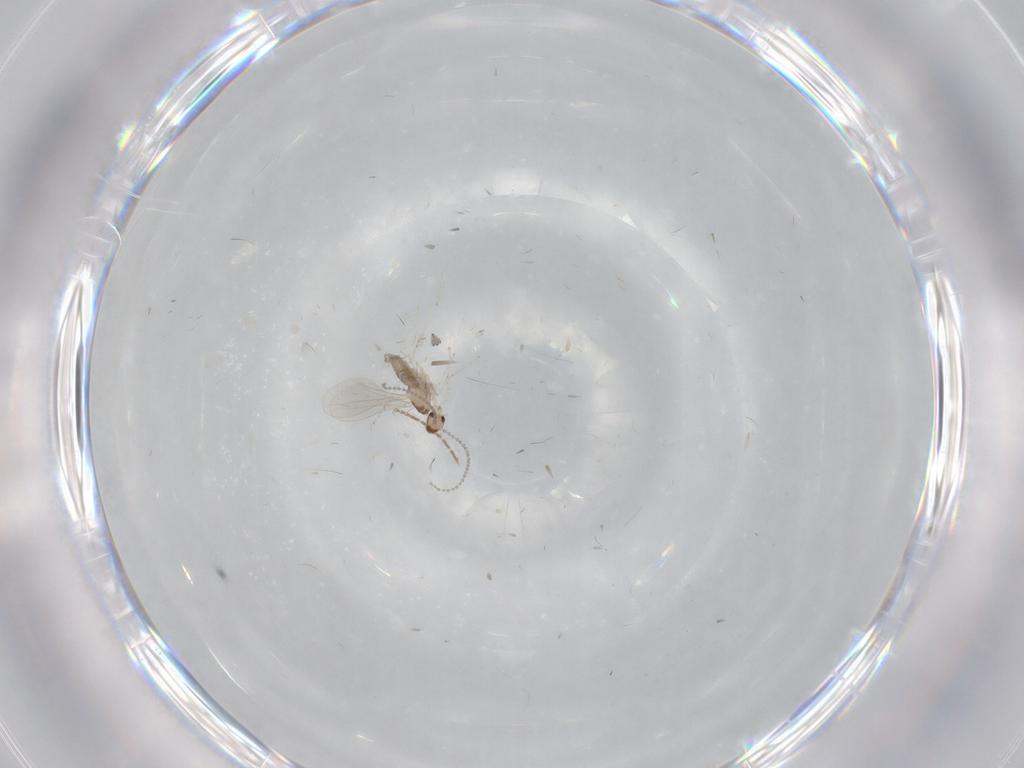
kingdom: Animalia
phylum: Arthropoda
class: Insecta
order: Diptera
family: Cecidomyiidae
